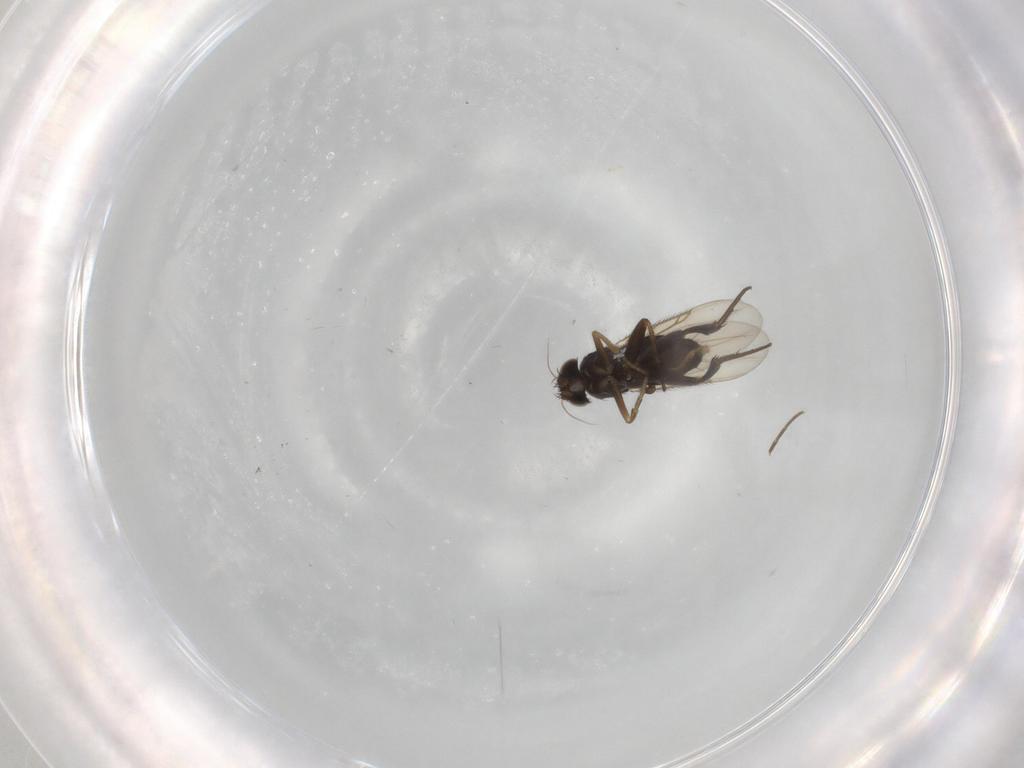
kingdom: Animalia
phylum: Arthropoda
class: Insecta
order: Diptera
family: Phoridae
